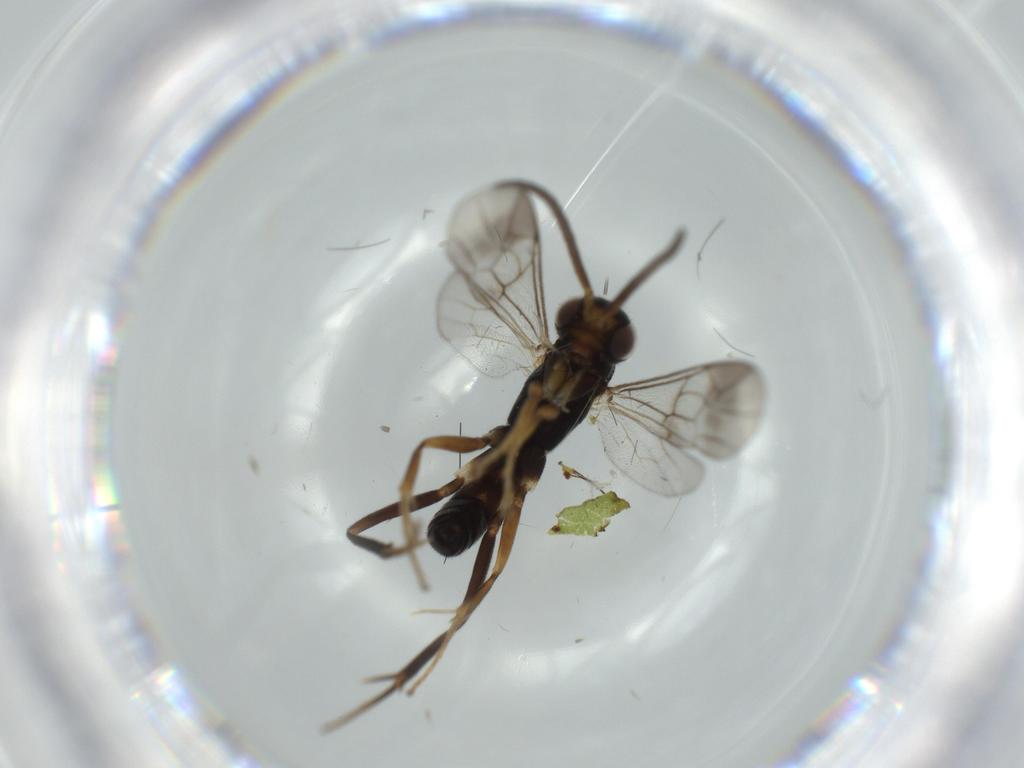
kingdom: Animalia
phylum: Arthropoda
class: Insecta
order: Hymenoptera
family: Pompilidae
